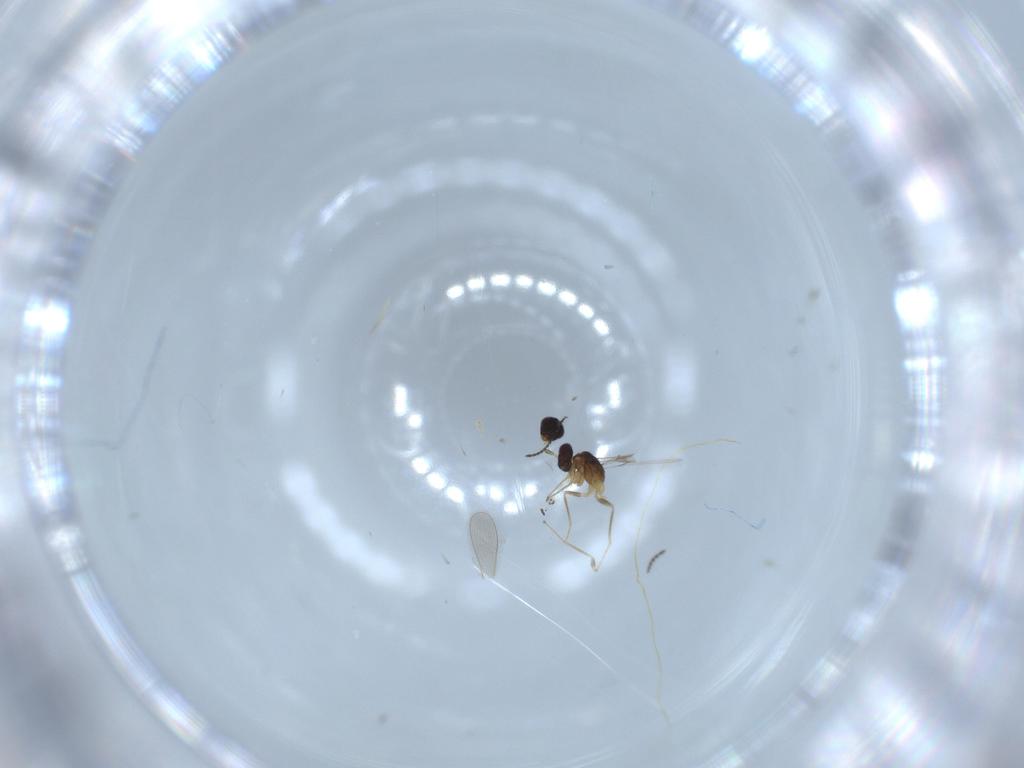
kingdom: Animalia
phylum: Arthropoda
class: Insecta
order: Hymenoptera
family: Mymaridae
